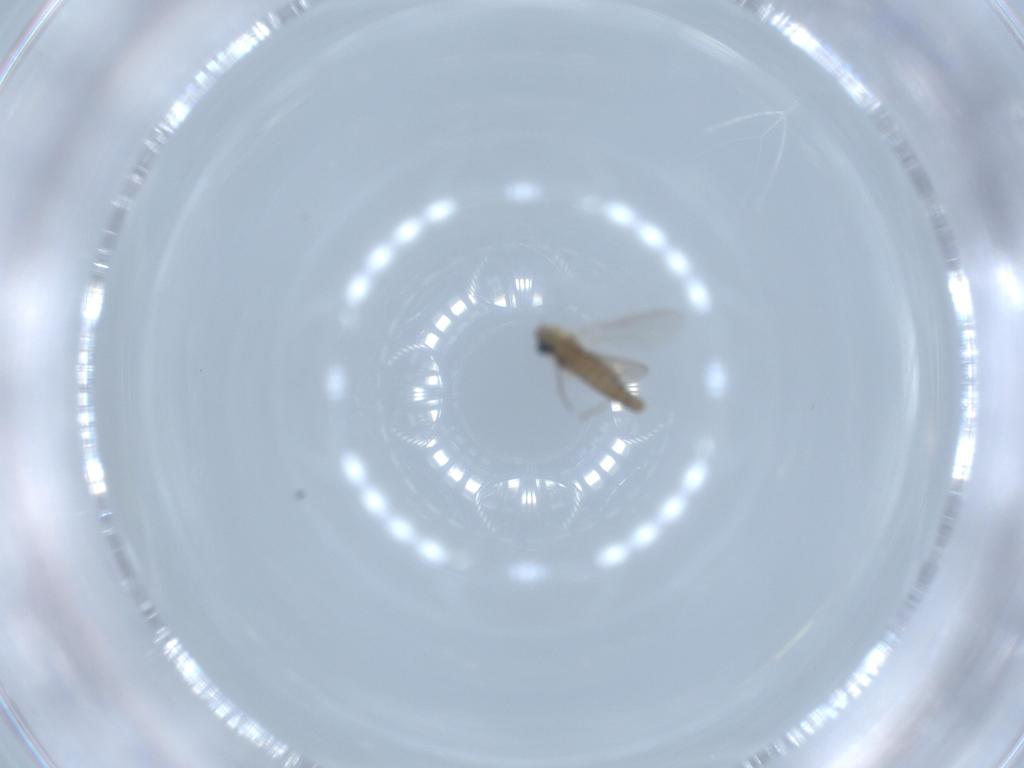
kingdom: Animalia
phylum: Arthropoda
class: Insecta
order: Diptera
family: Chironomidae
